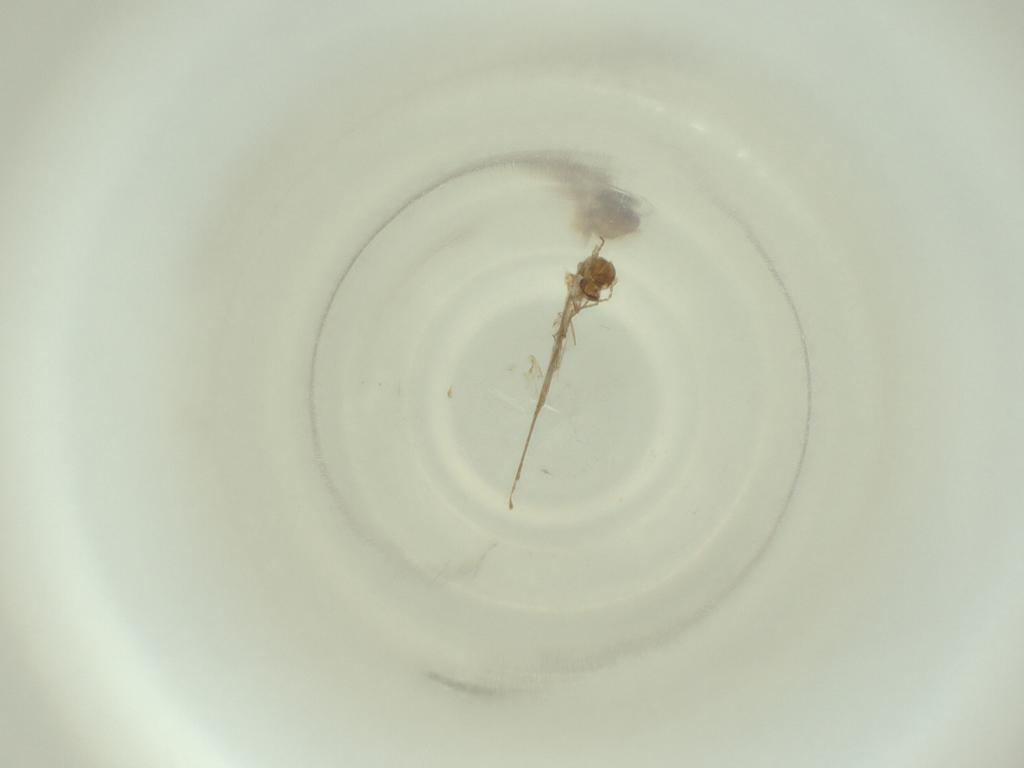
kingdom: Animalia
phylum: Arthropoda
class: Insecta
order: Diptera
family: Cecidomyiidae
